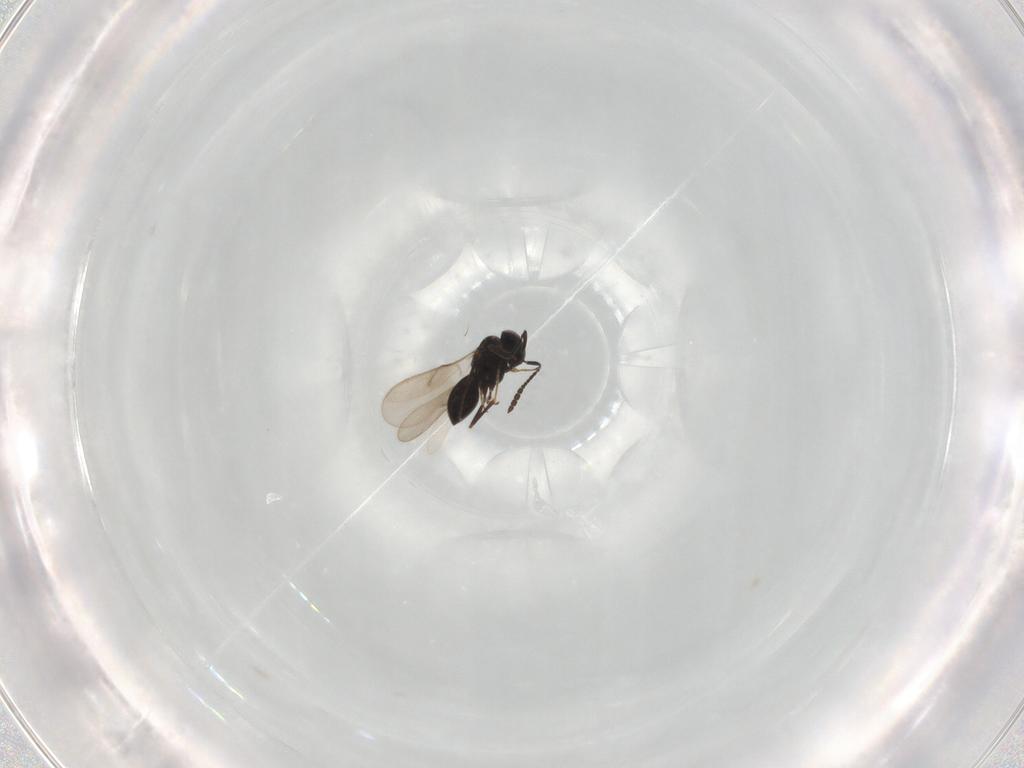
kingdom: Animalia
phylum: Arthropoda
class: Insecta
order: Hymenoptera
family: Scelionidae
